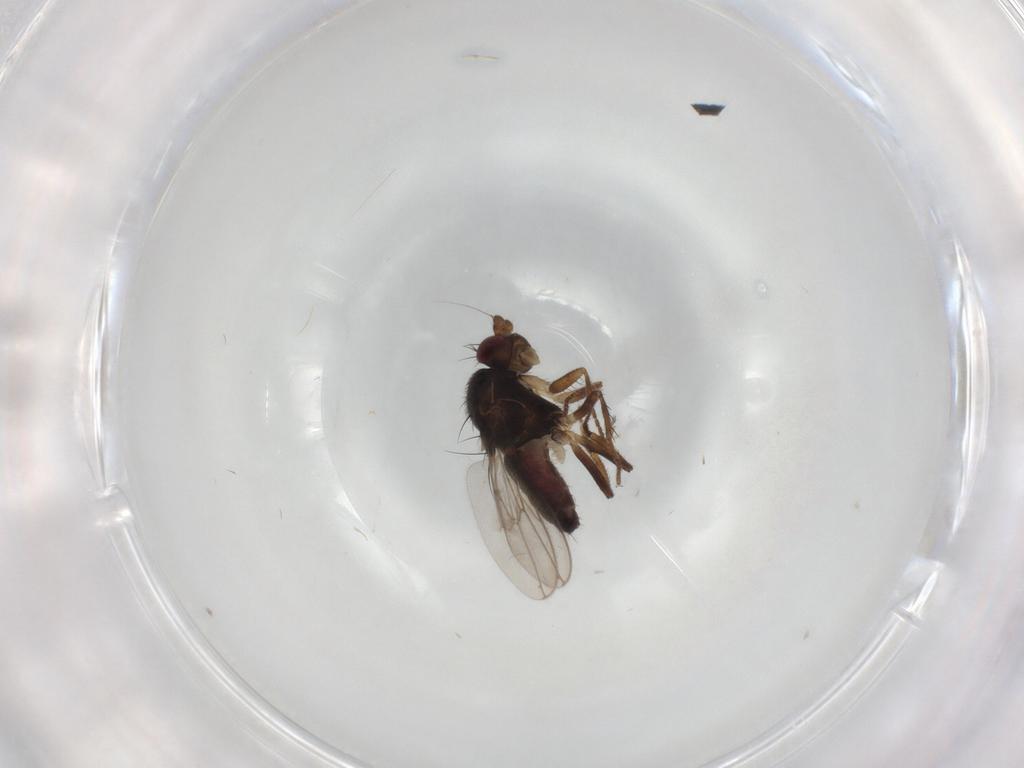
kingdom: Animalia
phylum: Arthropoda
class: Insecta
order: Diptera
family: Sphaeroceridae
